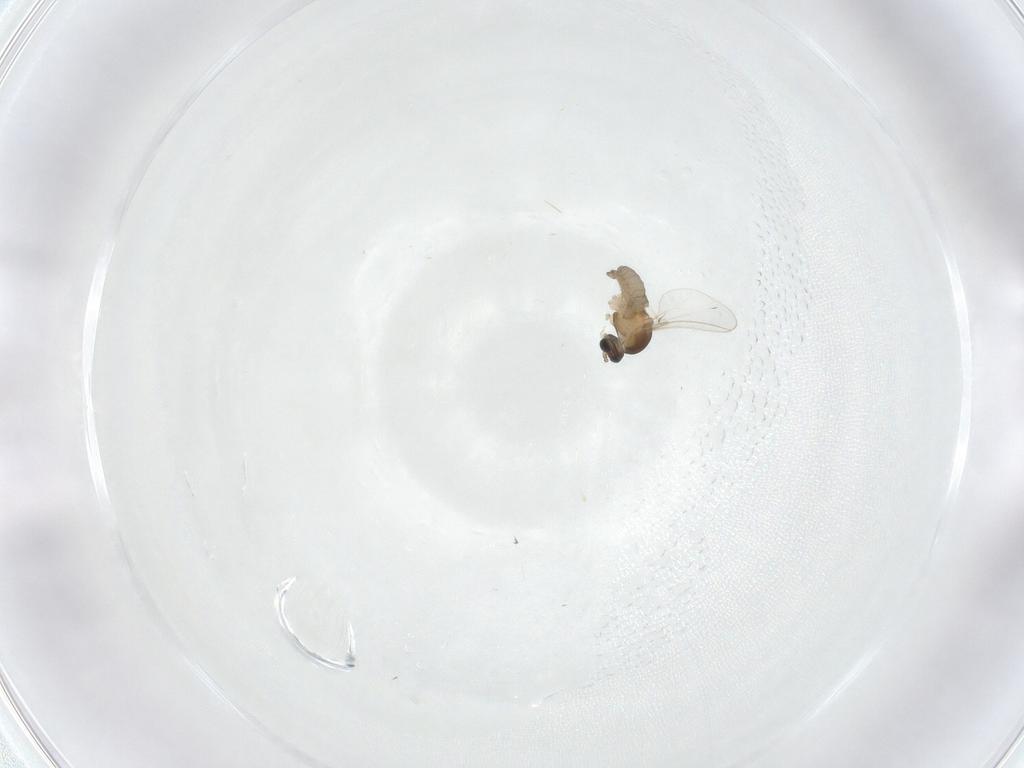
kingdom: Animalia
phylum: Arthropoda
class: Insecta
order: Diptera
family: Cecidomyiidae
